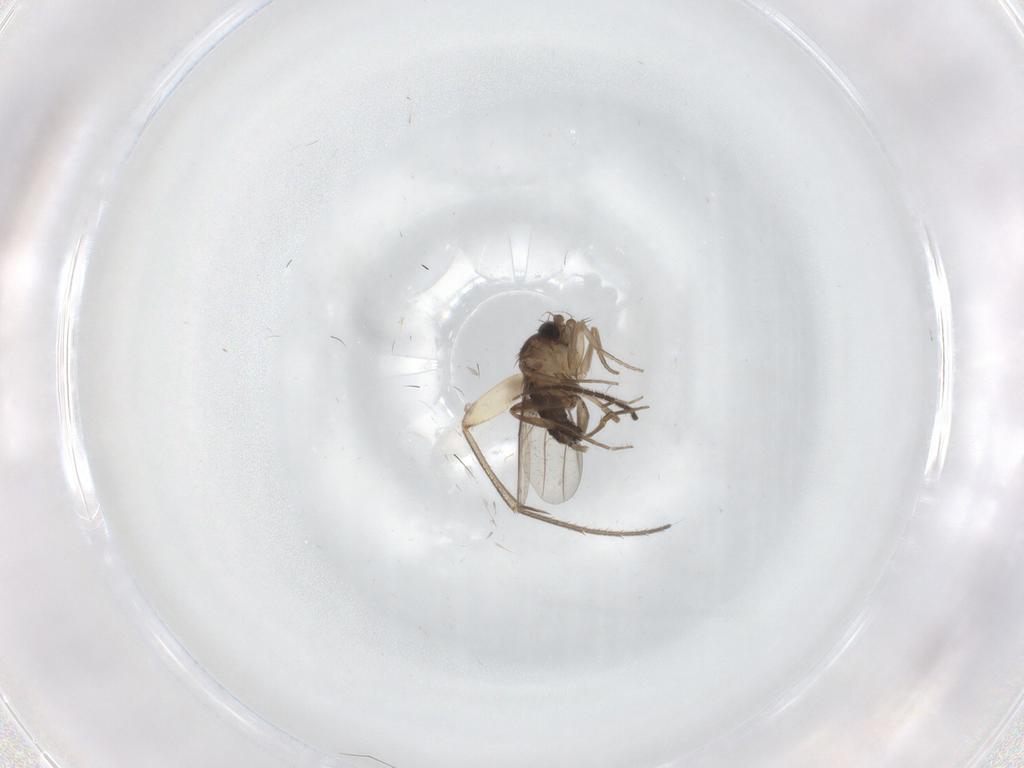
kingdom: Animalia
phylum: Arthropoda
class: Insecta
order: Diptera
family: Phoridae
